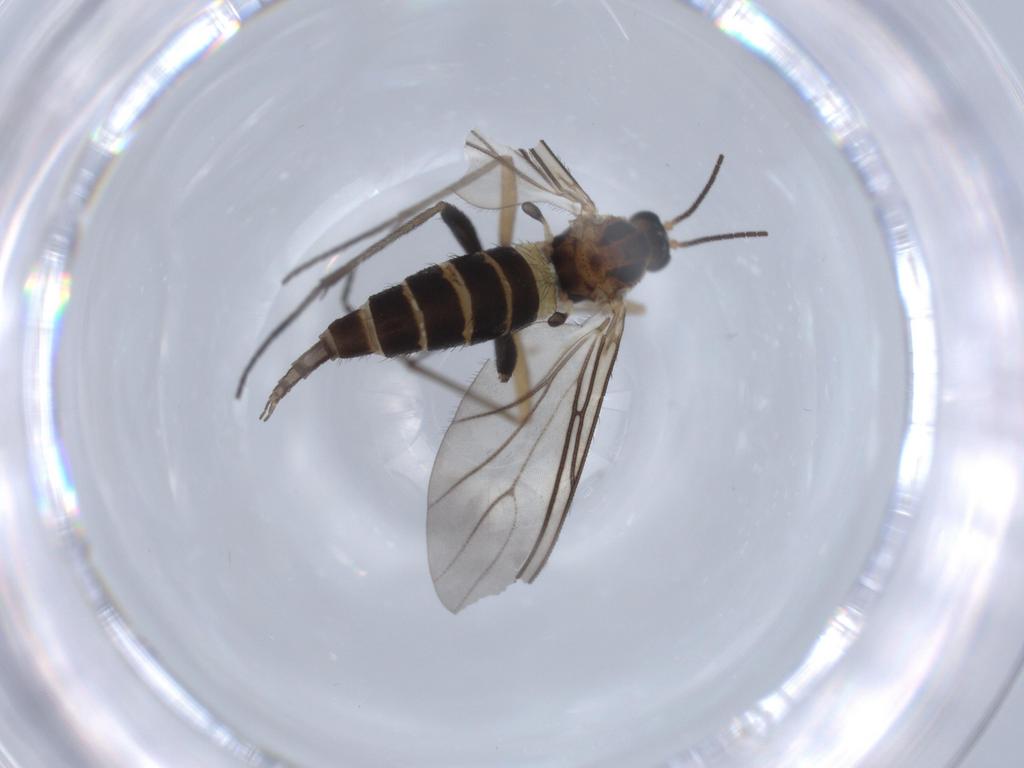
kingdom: Animalia
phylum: Arthropoda
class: Insecta
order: Diptera
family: Sciaridae
